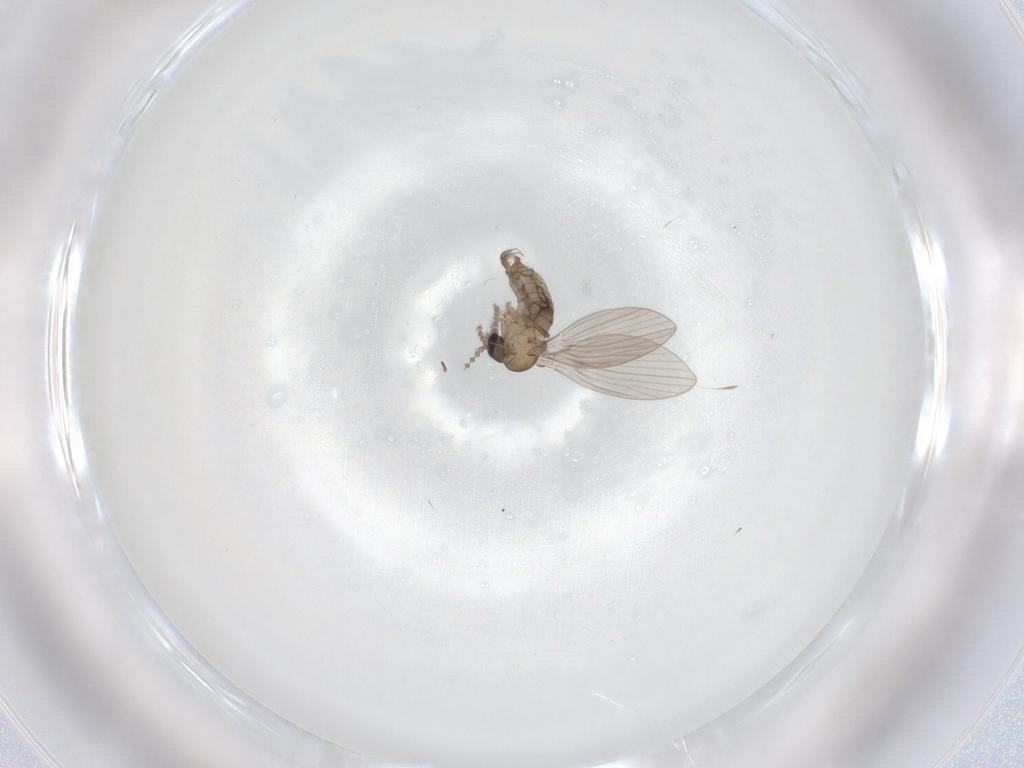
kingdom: Animalia
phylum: Arthropoda
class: Insecta
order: Diptera
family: Psychodidae
